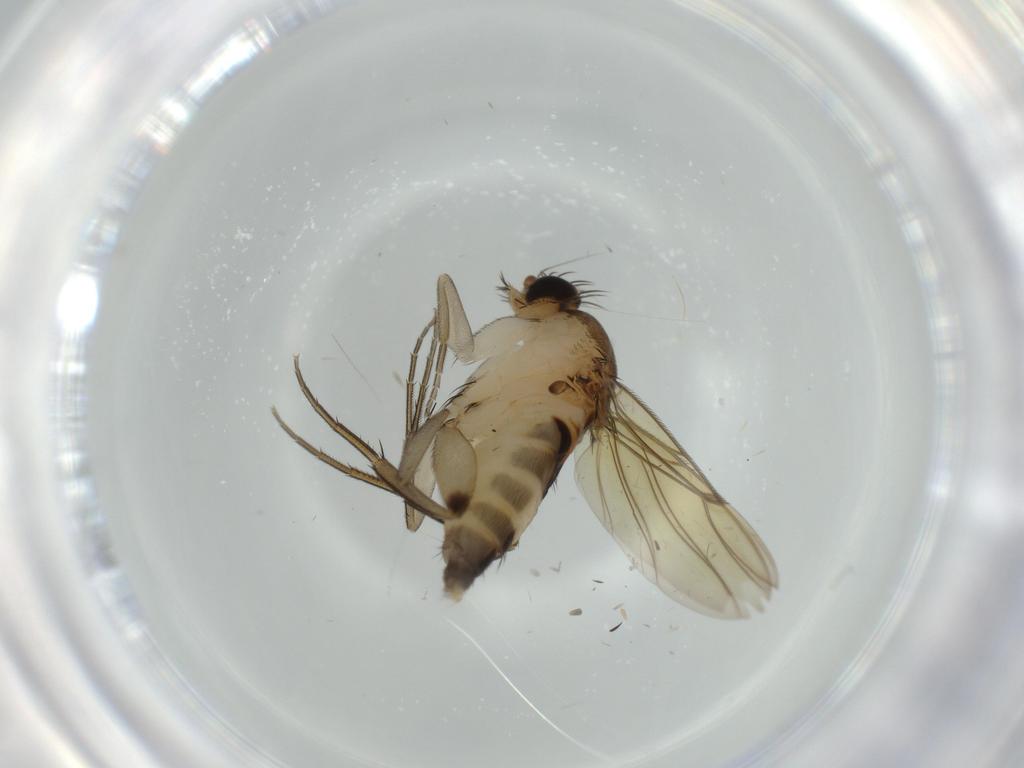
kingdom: Animalia
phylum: Arthropoda
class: Insecta
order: Diptera
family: Phoridae
